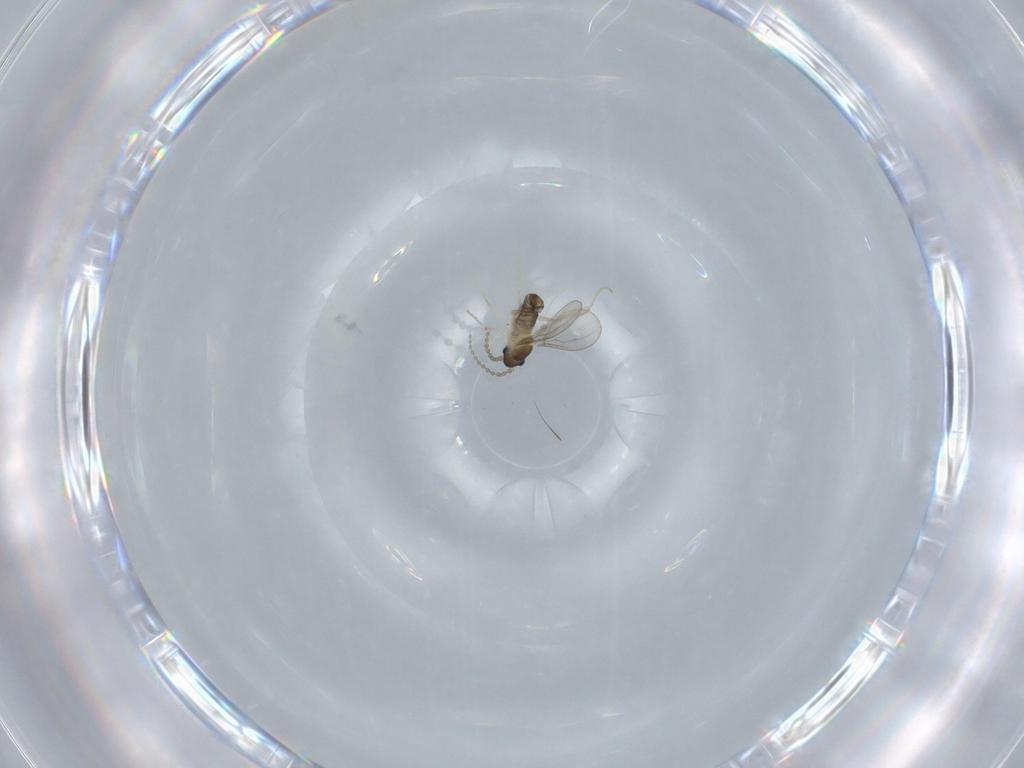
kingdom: Animalia
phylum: Arthropoda
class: Insecta
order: Diptera
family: Cecidomyiidae
